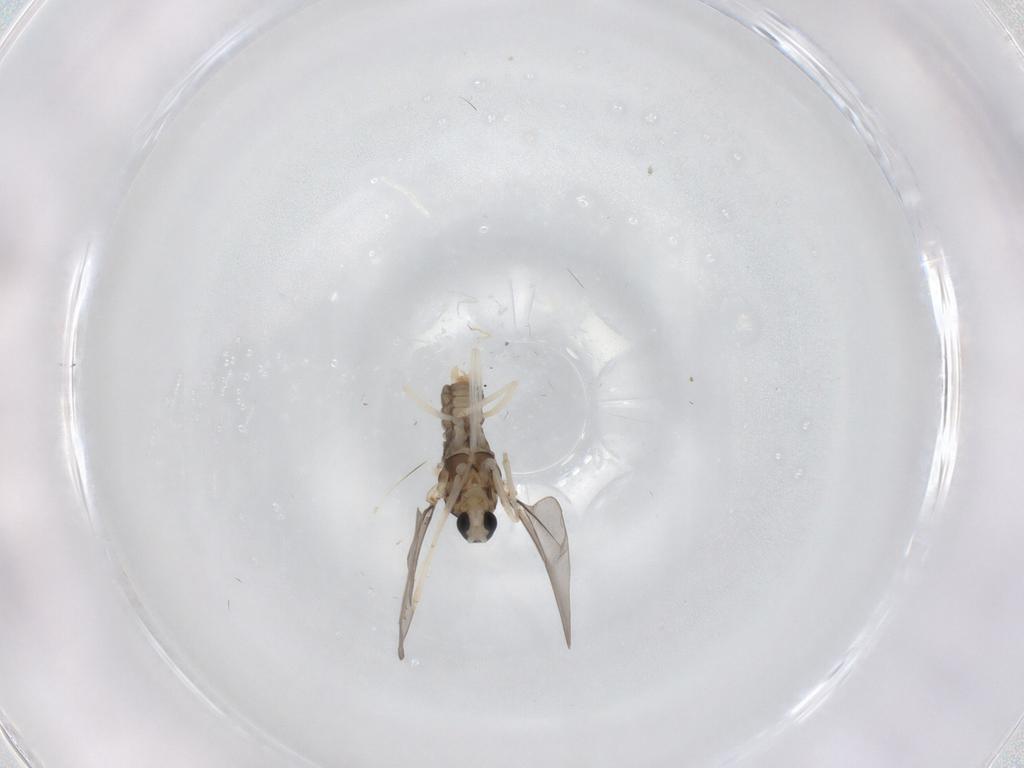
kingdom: Animalia
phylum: Arthropoda
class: Insecta
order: Diptera
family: Cecidomyiidae
